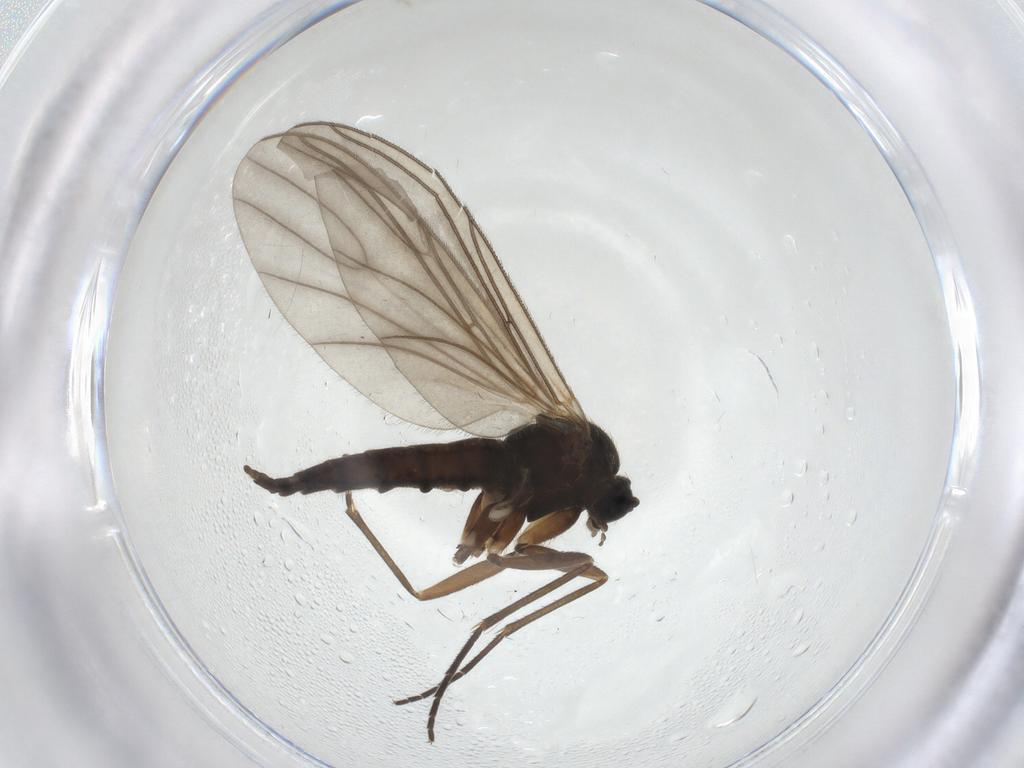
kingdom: Animalia
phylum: Arthropoda
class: Insecta
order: Diptera
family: Sciaridae
